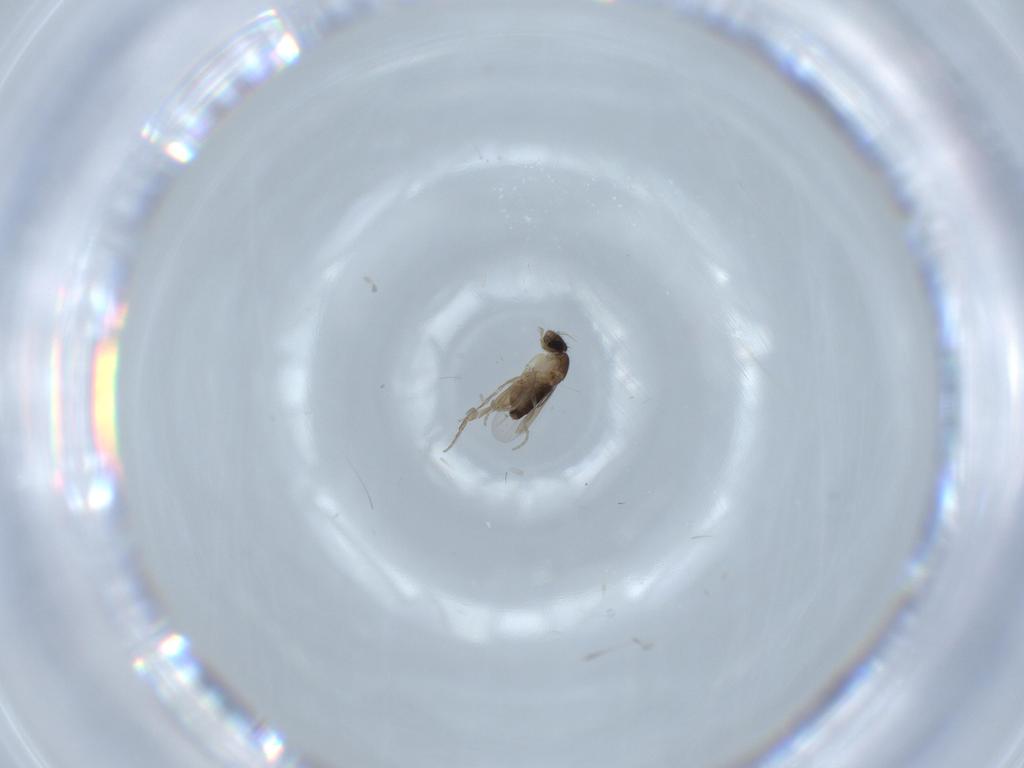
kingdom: Animalia
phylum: Arthropoda
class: Insecta
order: Diptera
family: Phoridae
